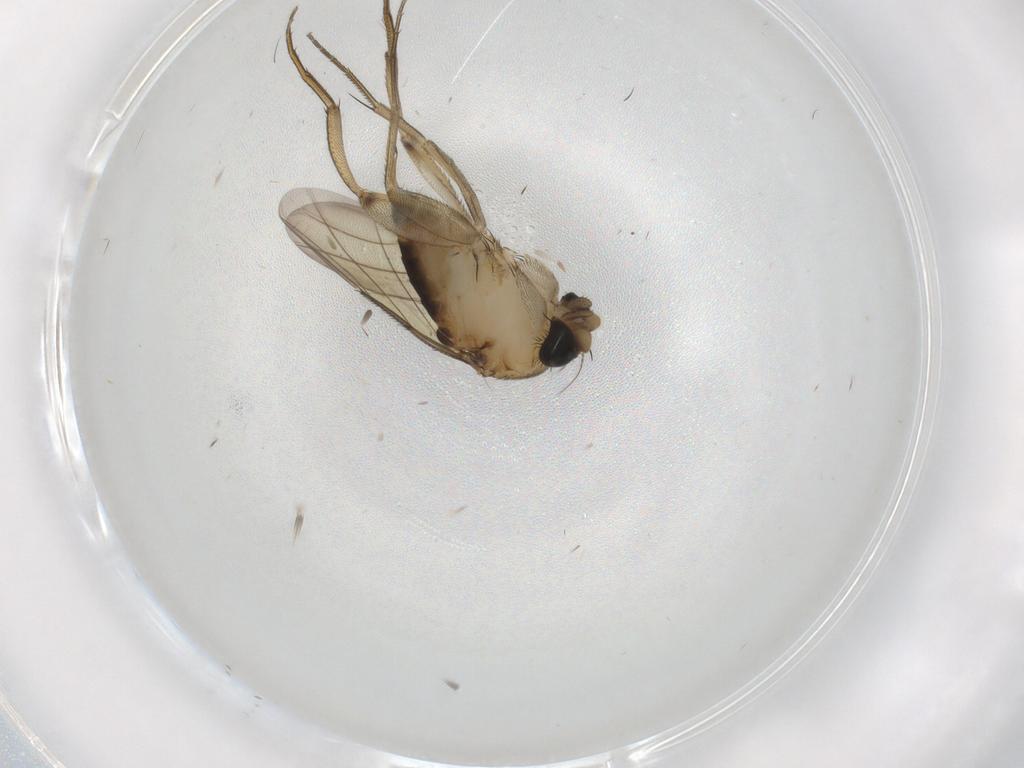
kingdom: Animalia
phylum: Arthropoda
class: Insecta
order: Diptera
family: Phoridae
